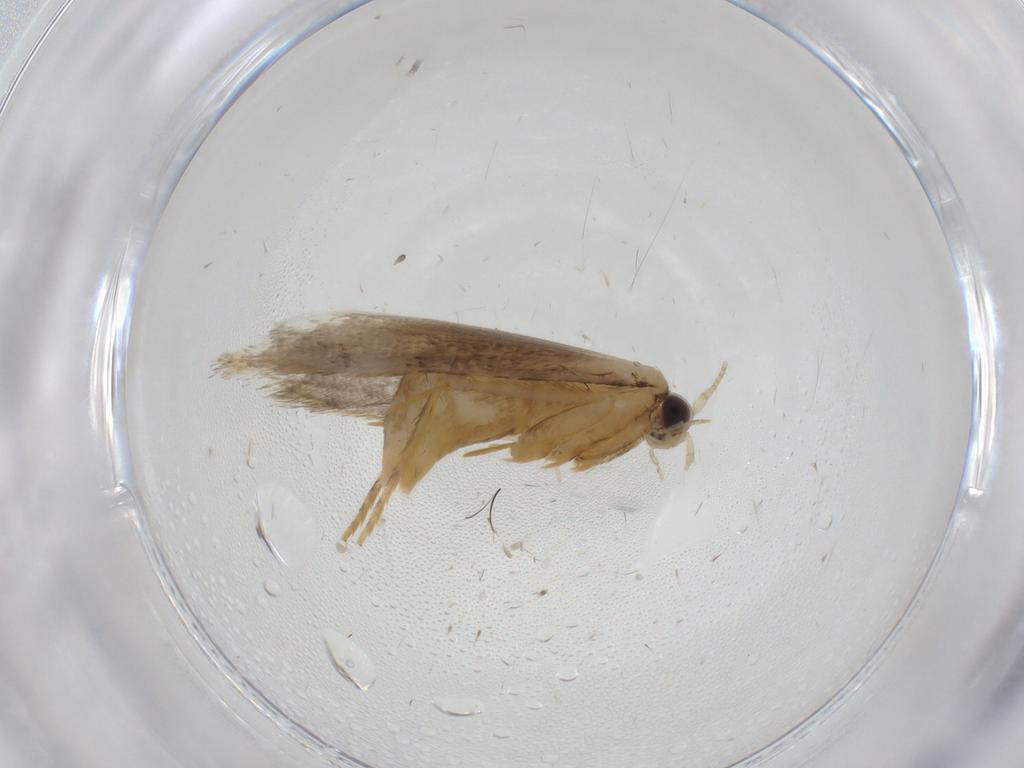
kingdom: Animalia
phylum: Arthropoda
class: Insecta
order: Lepidoptera
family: Tineidae
